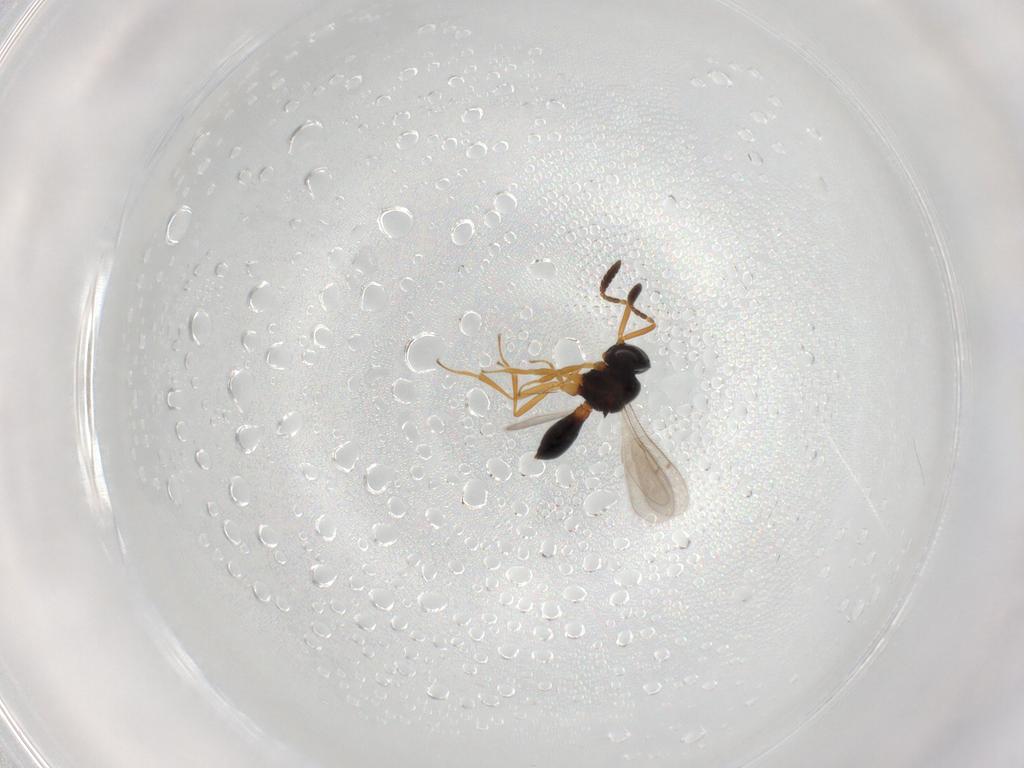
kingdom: Animalia
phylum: Arthropoda
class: Insecta
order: Hymenoptera
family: Scelionidae
